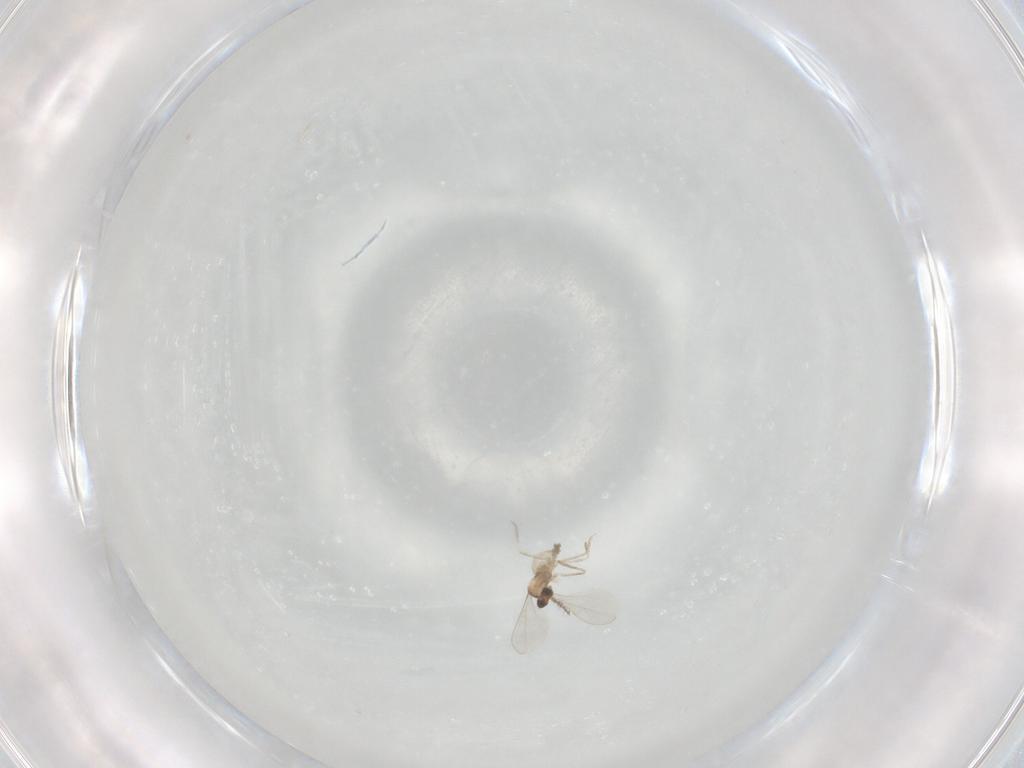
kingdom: Animalia
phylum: Arthropoda
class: Insecta
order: Diptera
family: Cecidomyiidae
